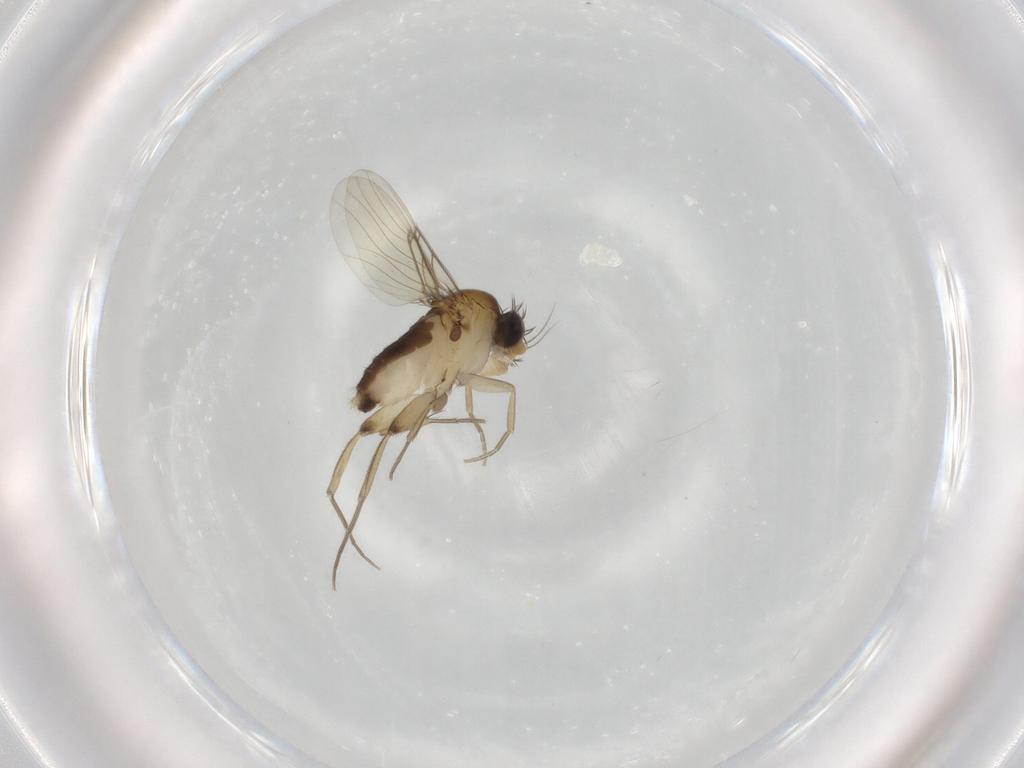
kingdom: Animalia
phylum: Arthropoda
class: Insecta
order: Diptera
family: Phoridae
